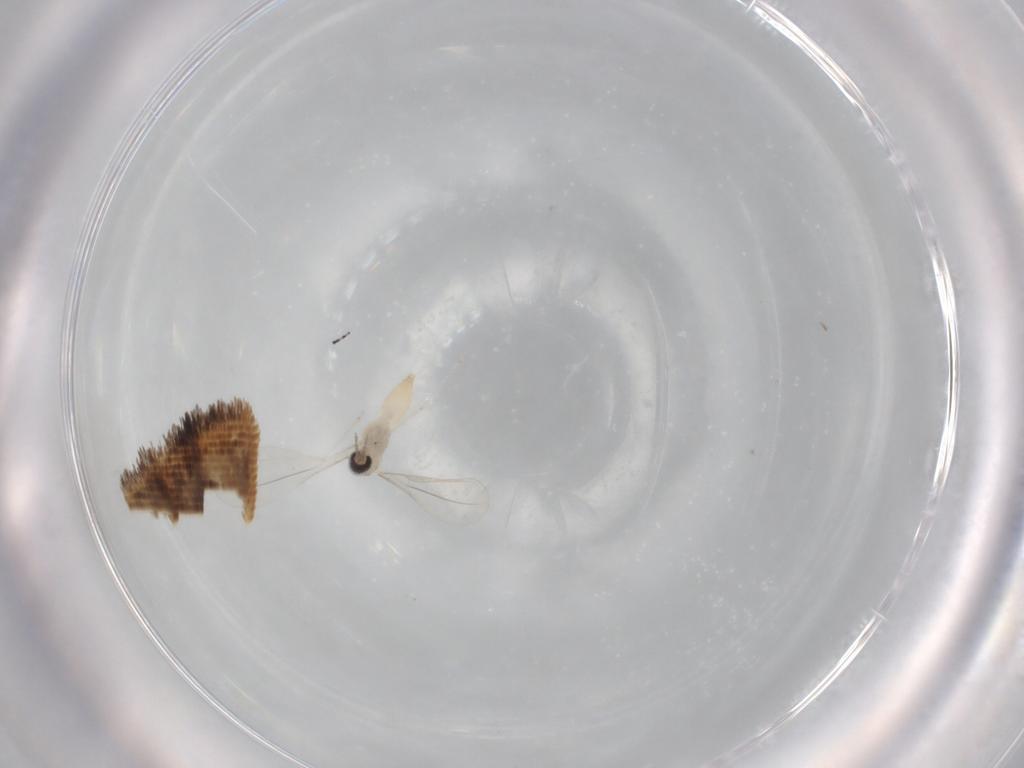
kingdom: Animalia
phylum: Arthropoda
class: Insecta
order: Diptera
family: Cecidomyiidae
